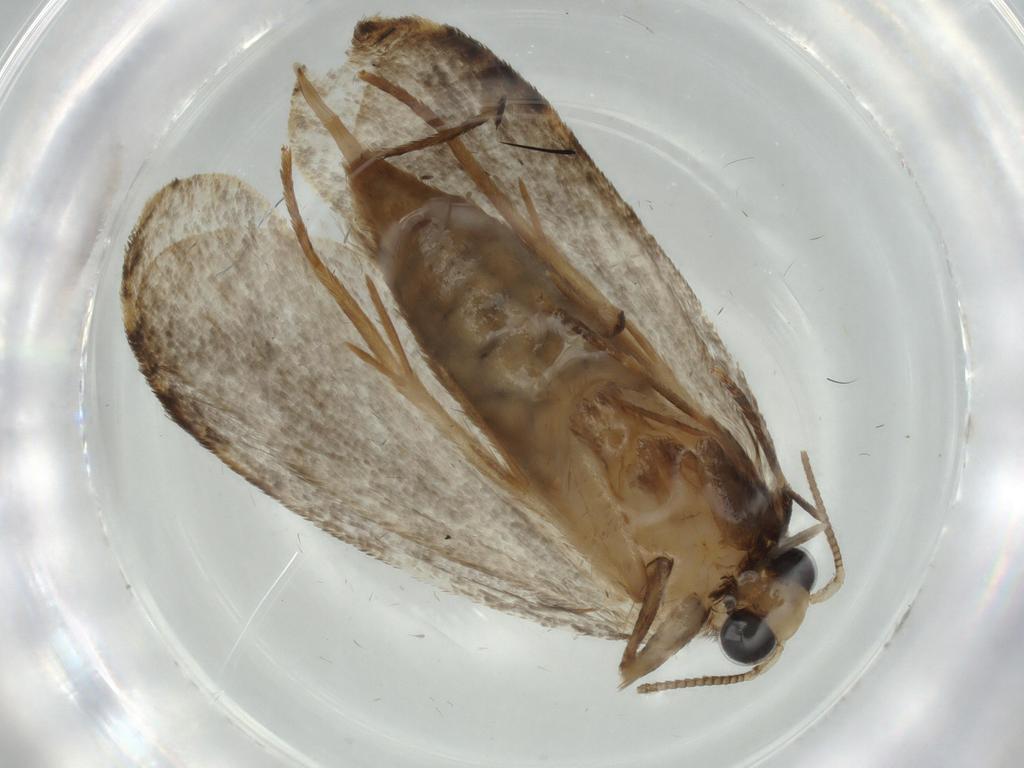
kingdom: Animalia
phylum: Arthropoda
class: Insecta
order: Lepidoptera
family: Tineidae
